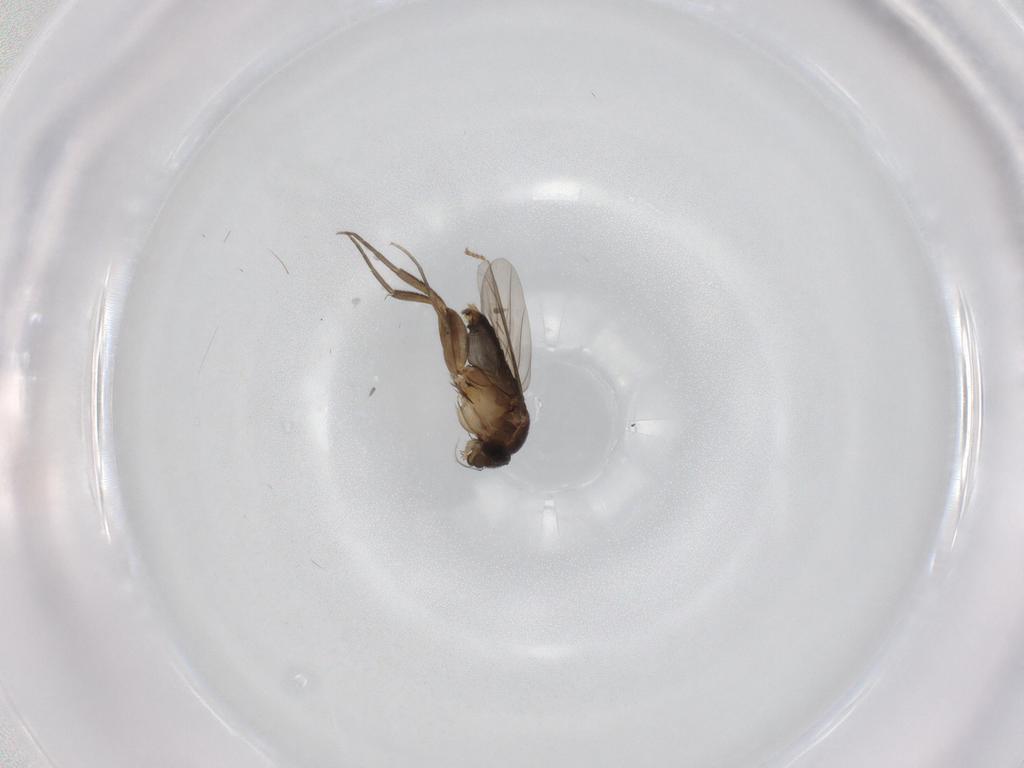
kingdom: Animalia
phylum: Arthropoda
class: Insecta
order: Diptera
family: Phoridae
